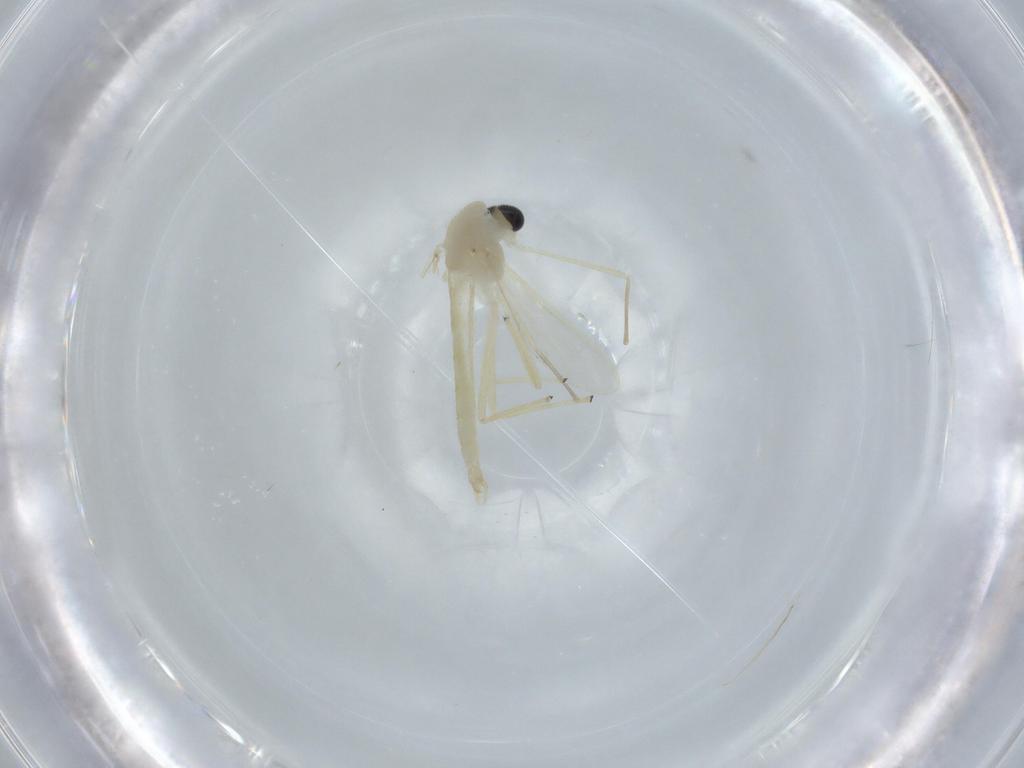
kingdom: Animalia
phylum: Arthropoda
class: Insecta
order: Diptera
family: Chironomidae
